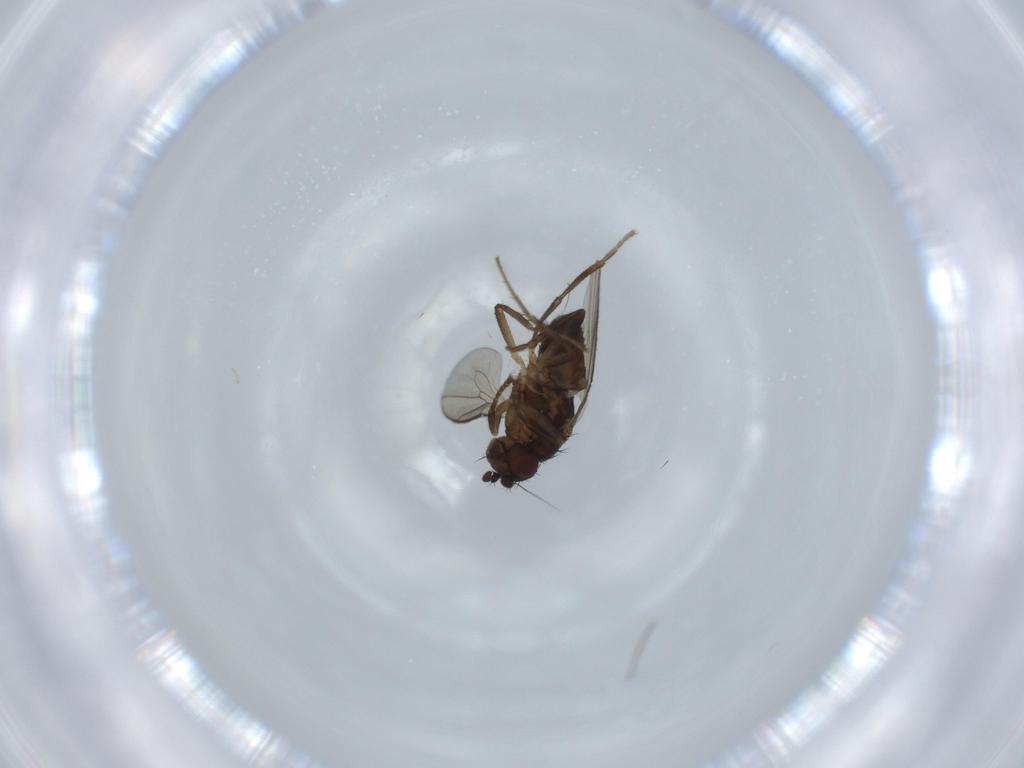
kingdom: Animalia
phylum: Arthropoda
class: Insecta
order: Diptera
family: Sphaeroceridae
